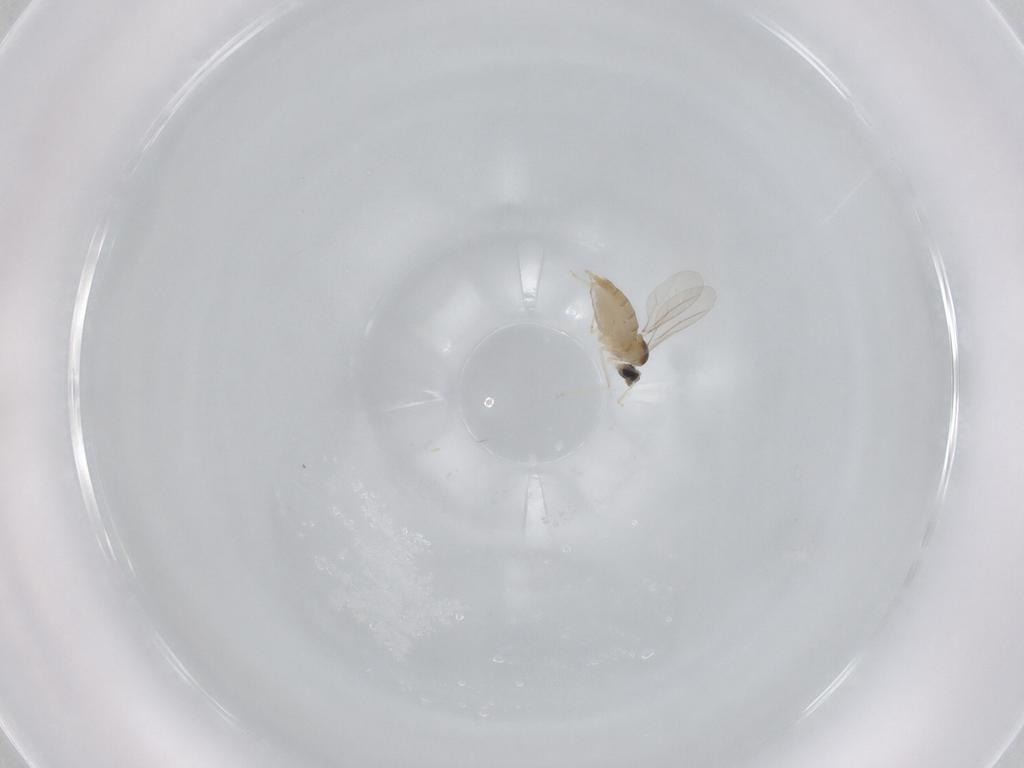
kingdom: Animalia
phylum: Arthropoda
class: Insecta
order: Diptera
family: Cecidomyiidae
